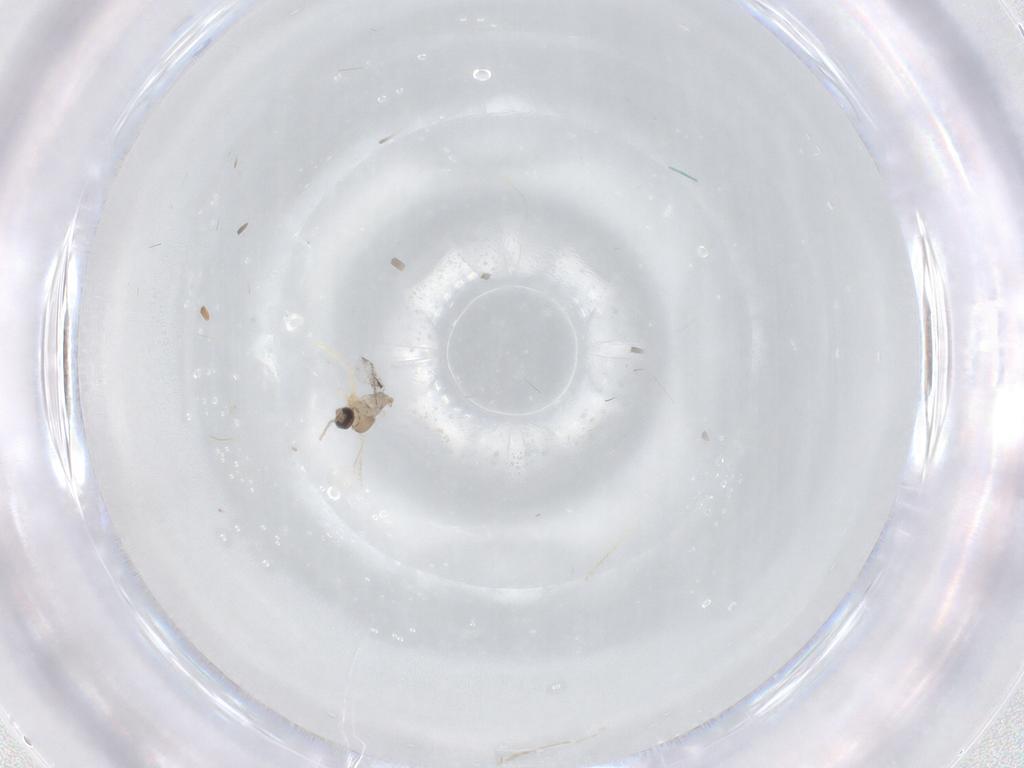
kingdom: Animalia
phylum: Arthropoda
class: Insecta
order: Diptera
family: Cecidomyiidae
